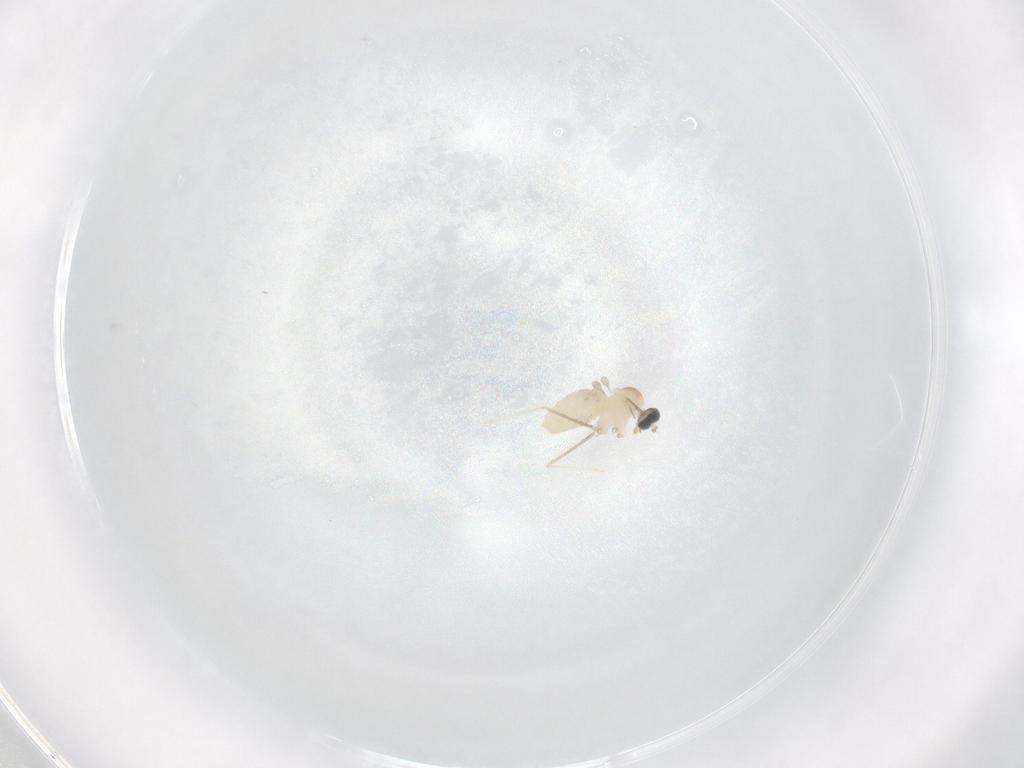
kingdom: Animalia
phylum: Arthropoda
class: Insecta
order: Diptera
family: Cecidomyiidae
